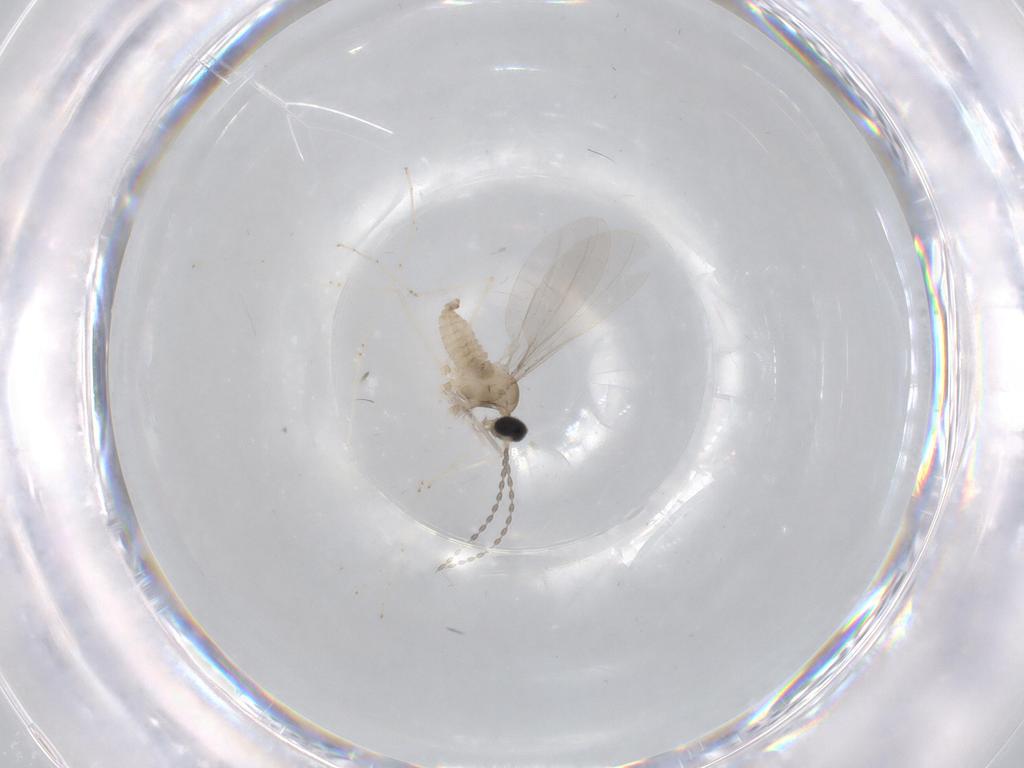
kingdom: Animalia
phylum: Arthropoda
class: Insecta
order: Diptera
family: Cecidomyiidae
